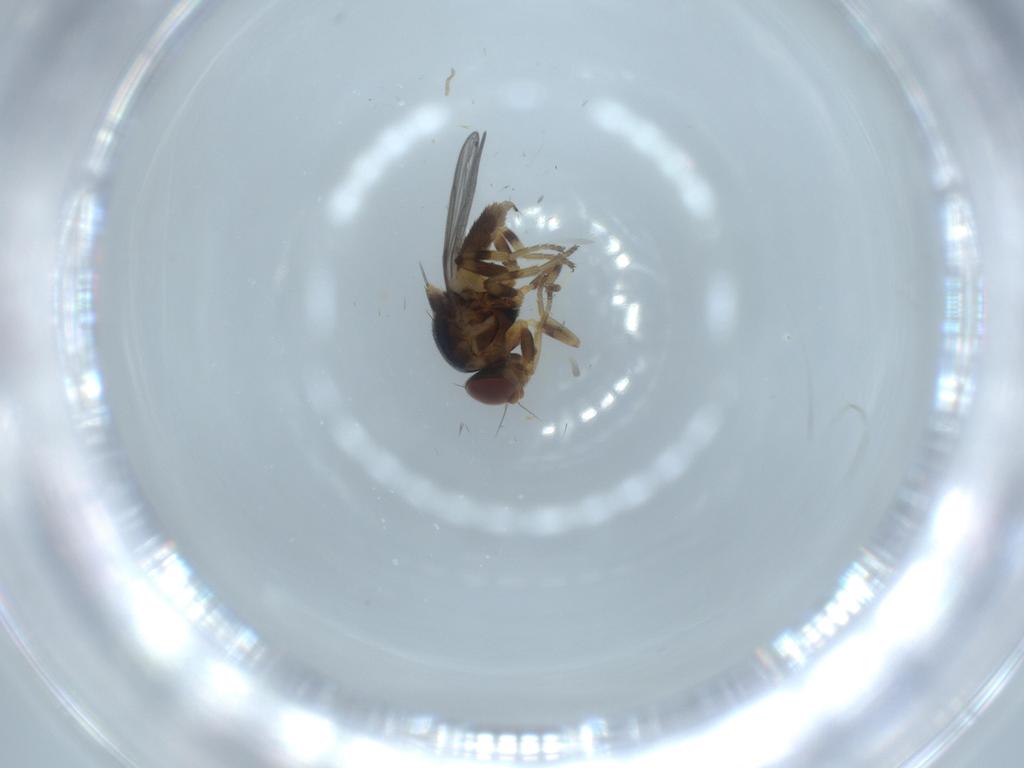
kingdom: Animalia
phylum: Arthropoda
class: Insecta
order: Diptera
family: Chloropidae
